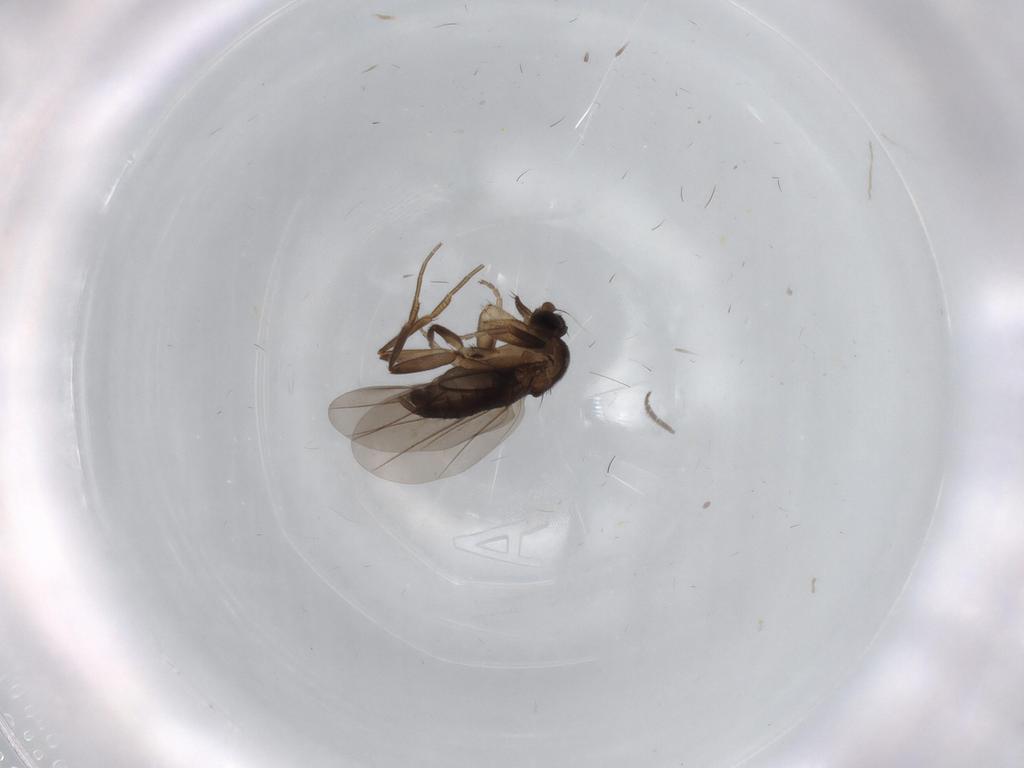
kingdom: Animalia
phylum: Arthropoda
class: Insecta
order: Diptera
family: Phoridae
